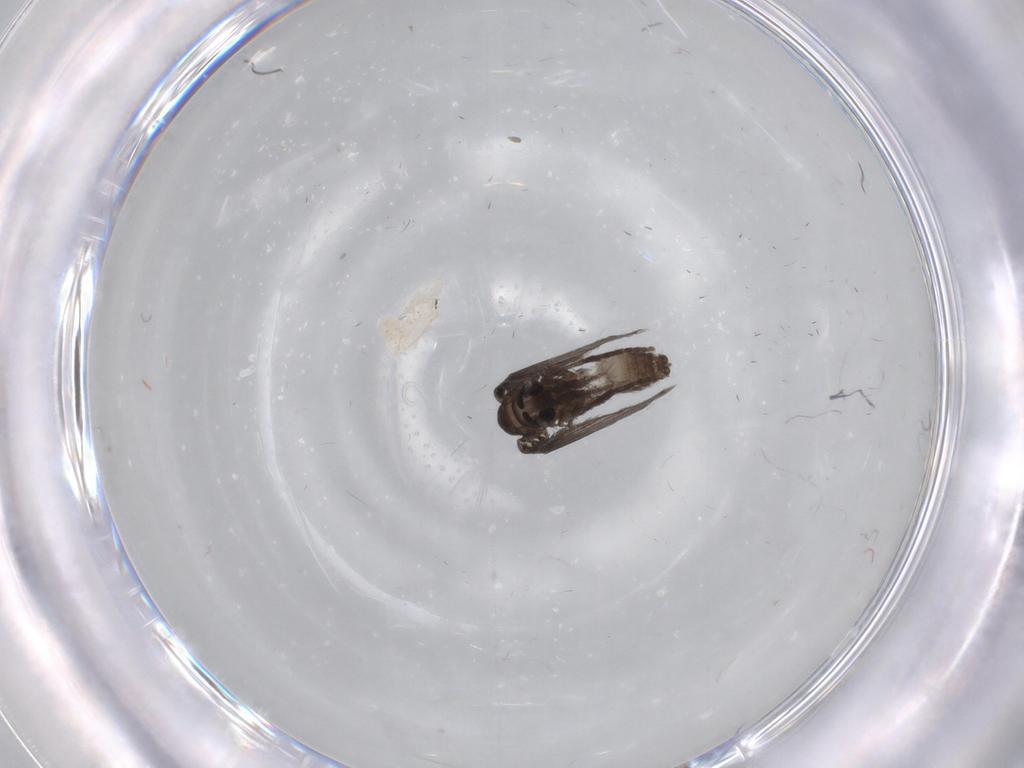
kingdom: Animalia
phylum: Arthropoda
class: Insecta
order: Diptera
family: Psychodidae
